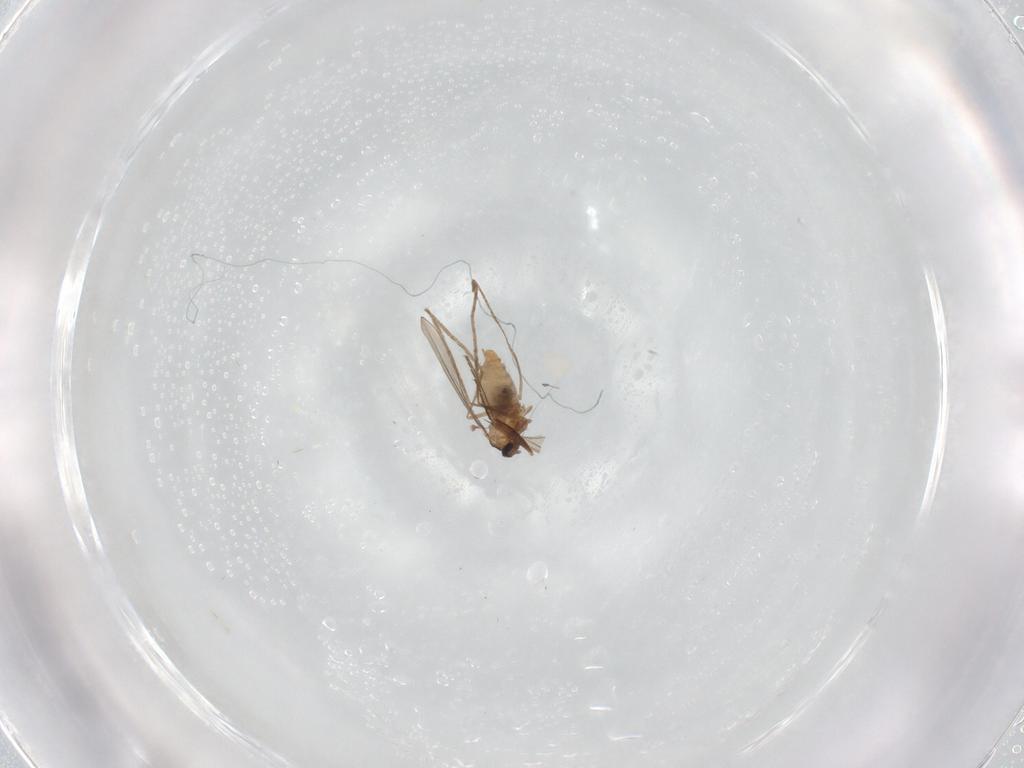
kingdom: Animalia
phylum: Arthropoda
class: Insecta
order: Diptera
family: Phoridae
